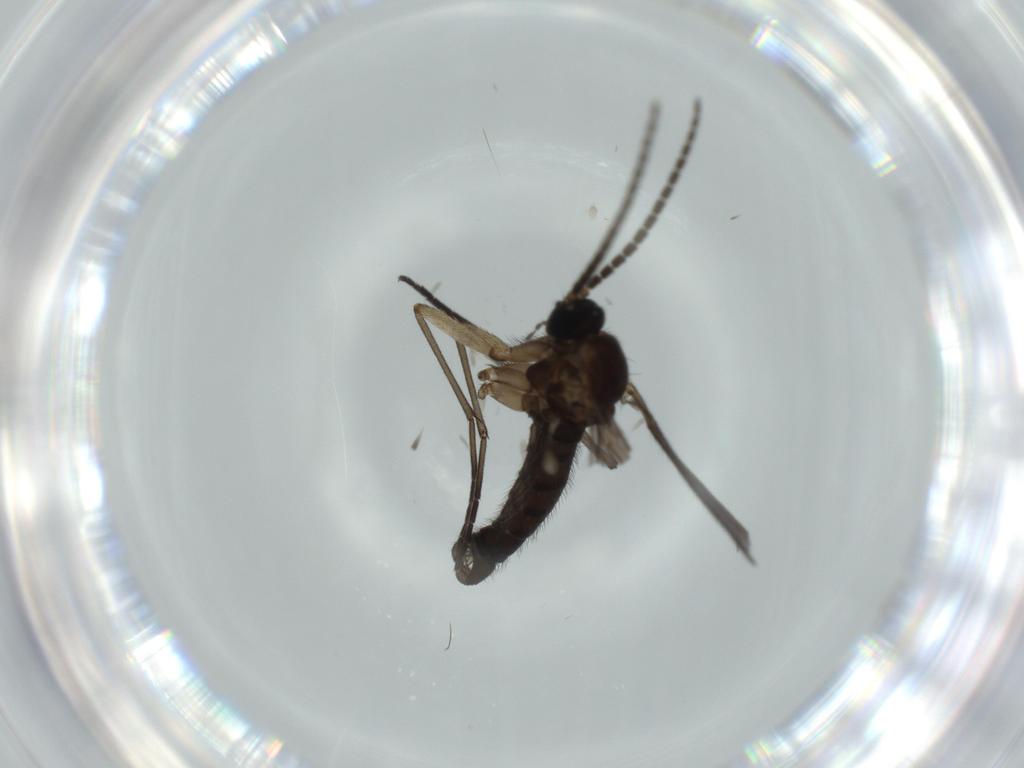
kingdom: Animalia
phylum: Arthropoda
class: Insecta
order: Diptera
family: Sciaridae
